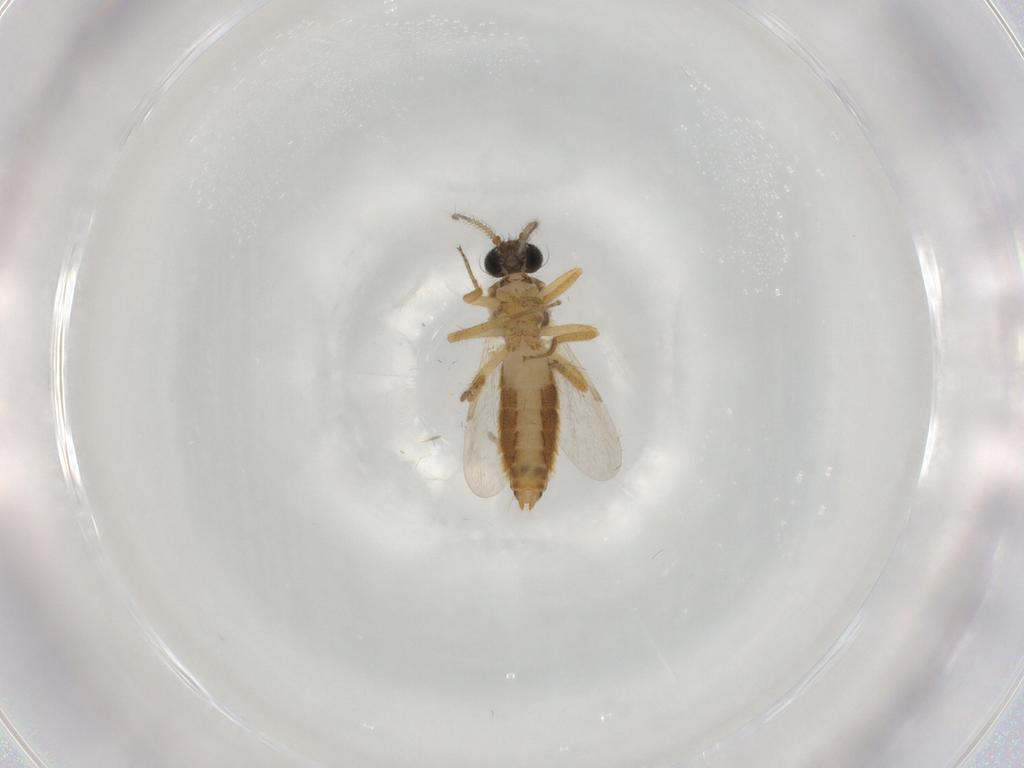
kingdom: Animalia
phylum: Arthropoda
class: Insecta
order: Diptera
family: Ceratopogonidae
